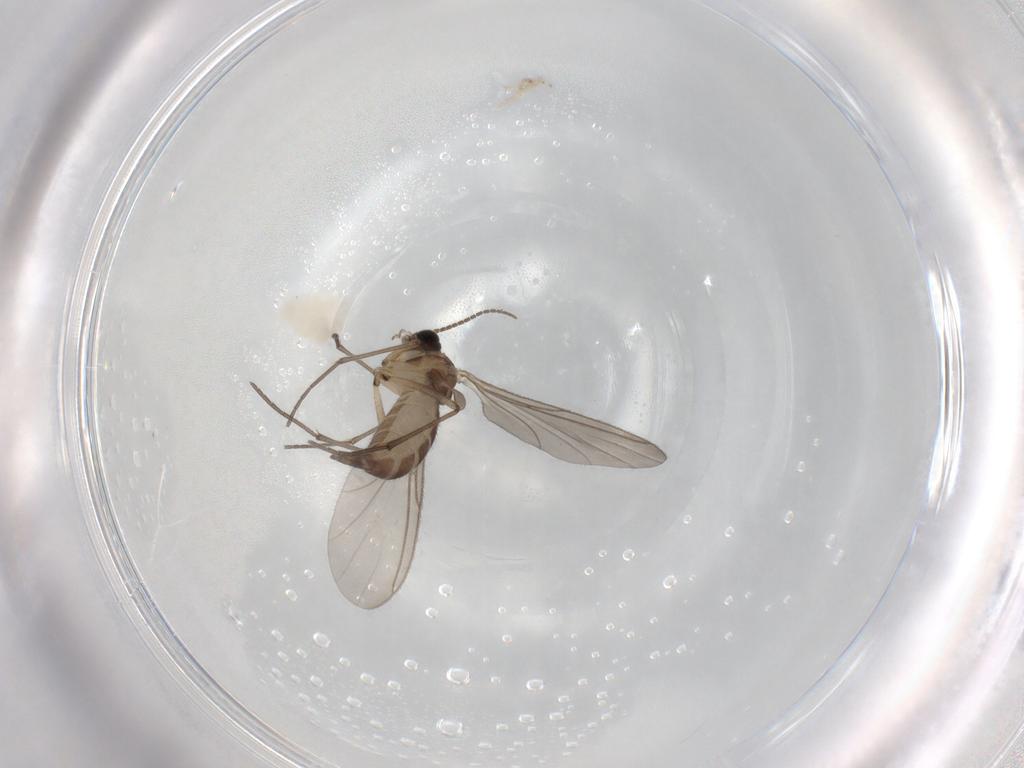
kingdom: Animalia
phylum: Arthropoda
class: Insecta
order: Diptera
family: Sciaridae
